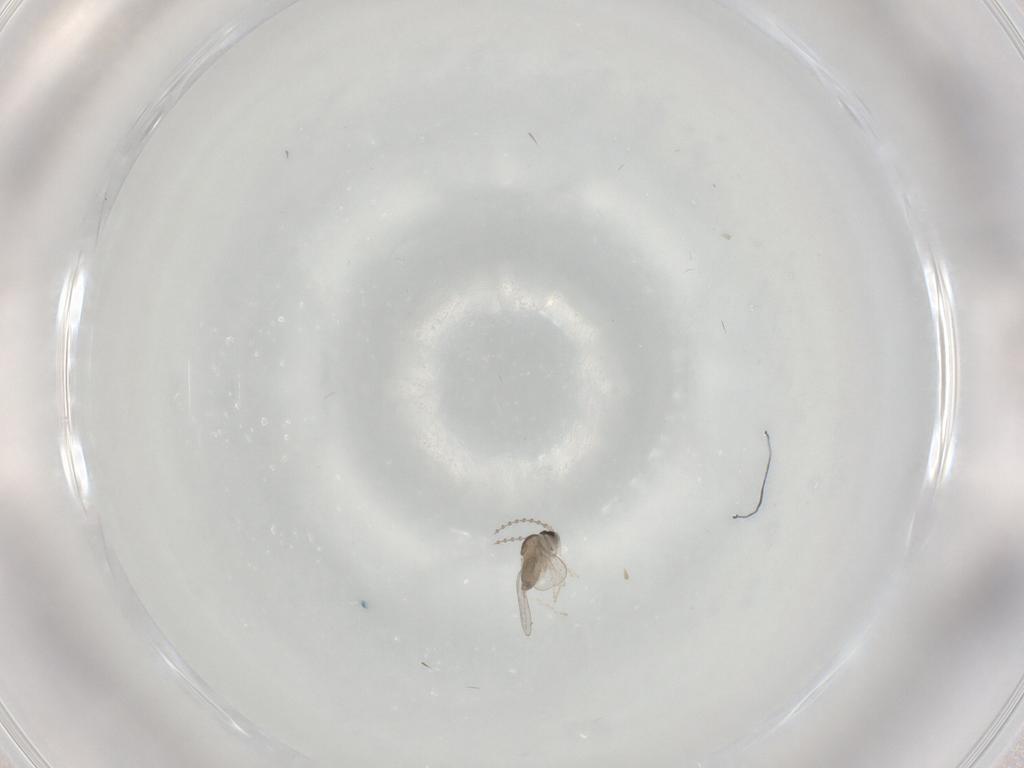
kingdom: Animalia
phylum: Arthropoda
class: Insecta
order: Diptera
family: Cecidomyiidae
